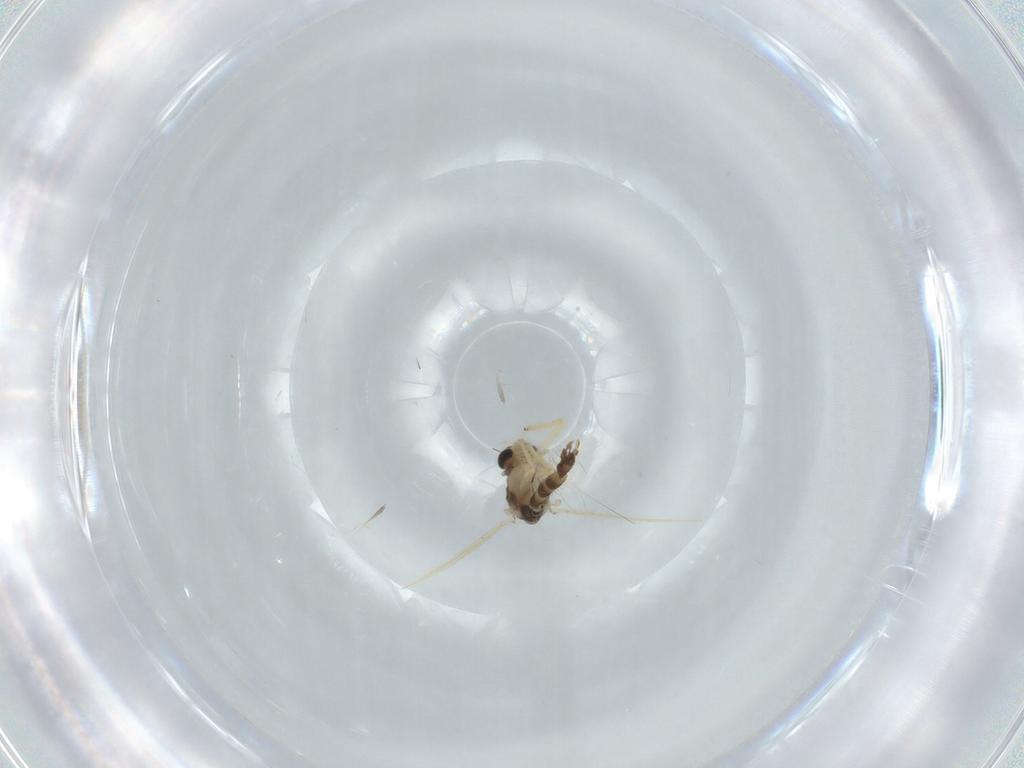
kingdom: Animalia
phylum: Arthropoda
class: Insecta
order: Diptera
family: Chironomidae
